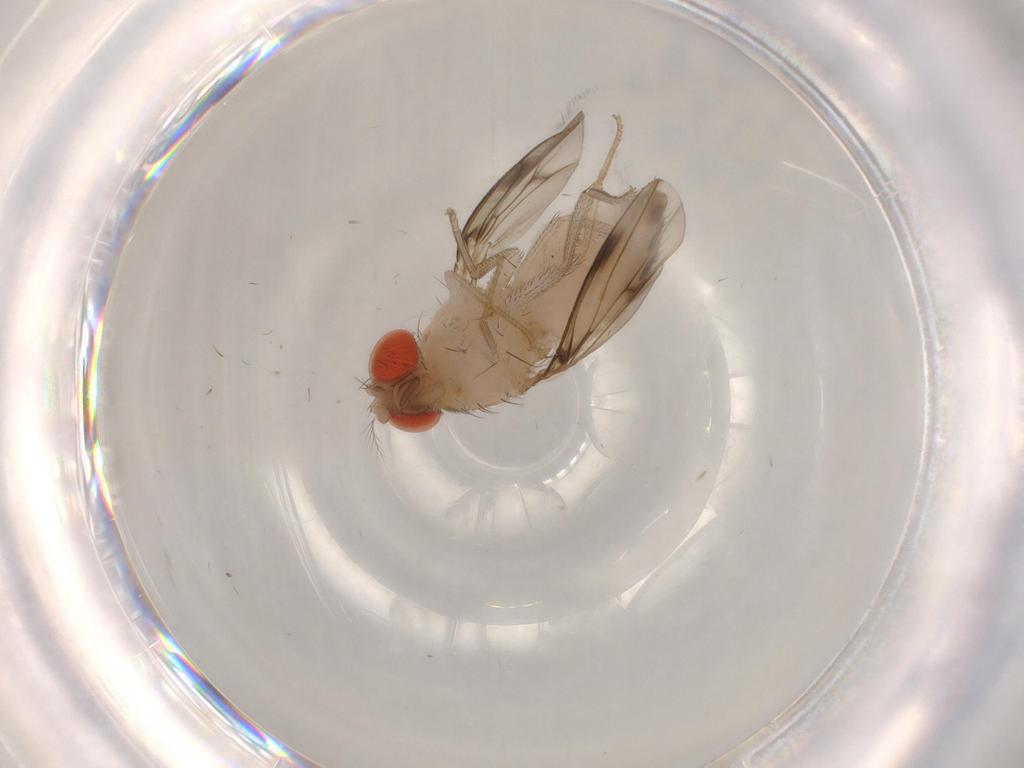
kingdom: Animalia
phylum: Arthropoda
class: Insecta
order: Diptera
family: Drosophilidae
